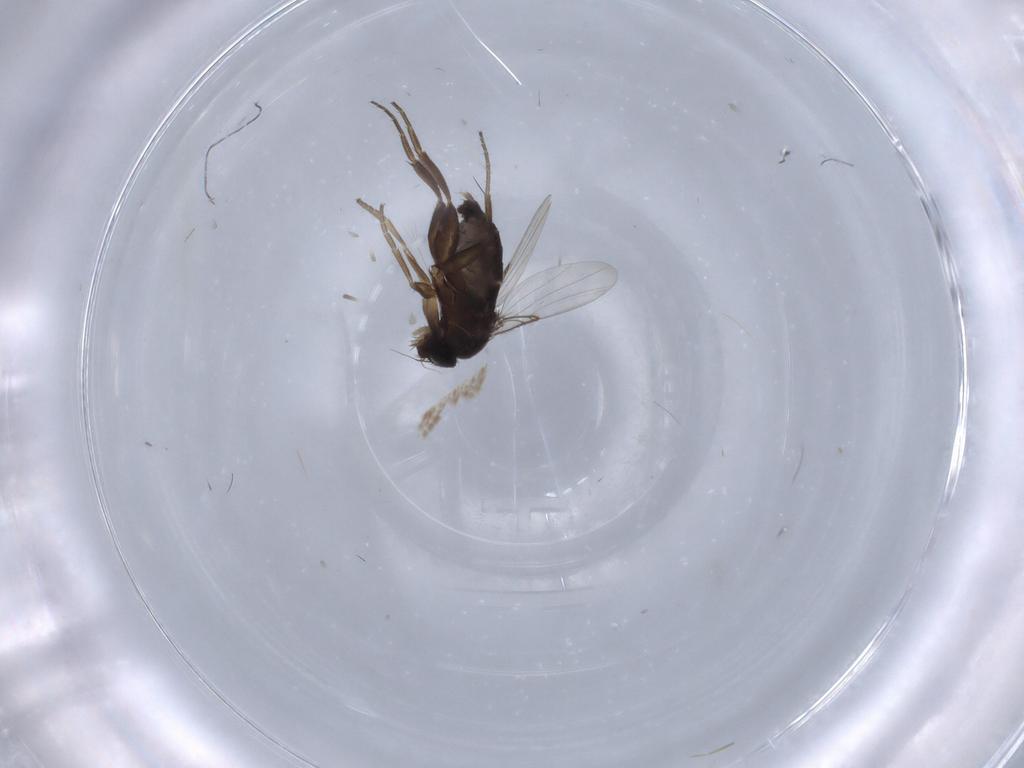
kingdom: Animalia
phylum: Arthropoda
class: Insecta
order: Diptera
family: Phoridae
